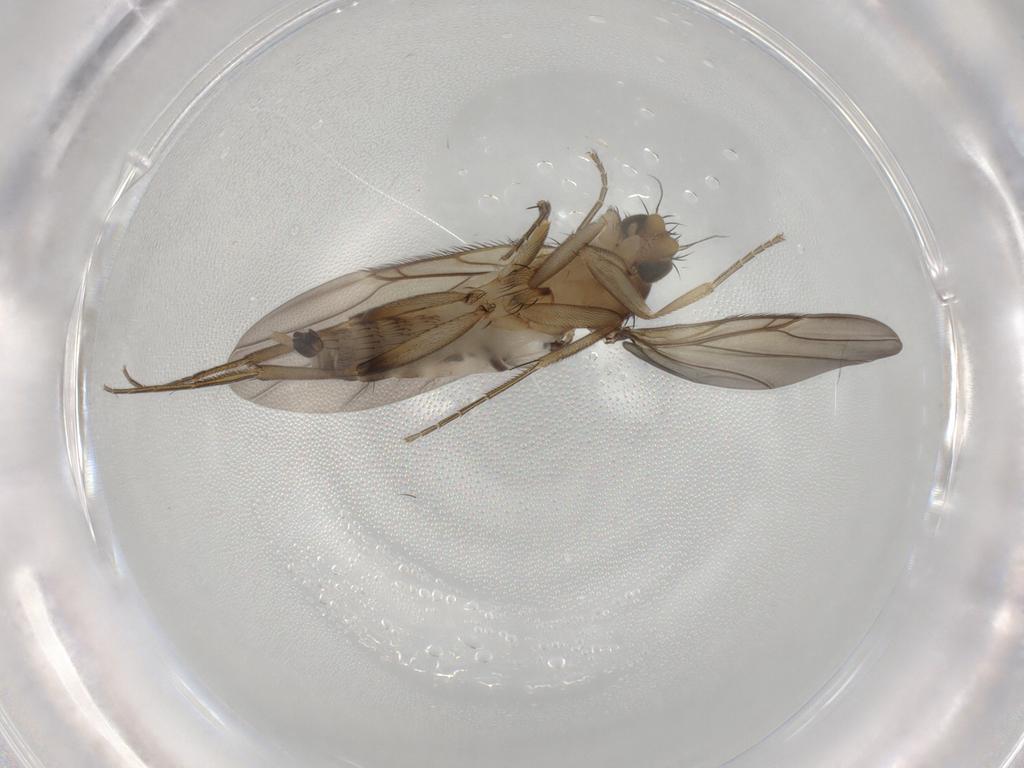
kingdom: Animalia
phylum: Arthropoda
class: Insecta
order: Diptera
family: Phoridae
